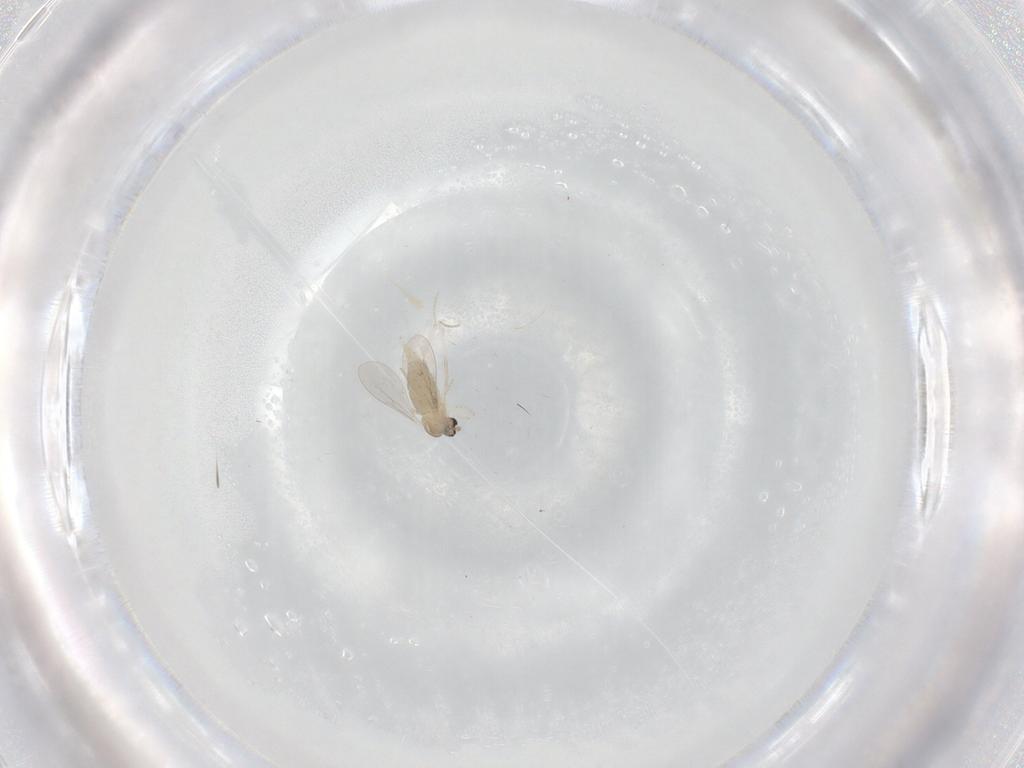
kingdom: Animalia
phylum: Arthropoda
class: Insecta
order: Diptera
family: Cecidomyiidae
